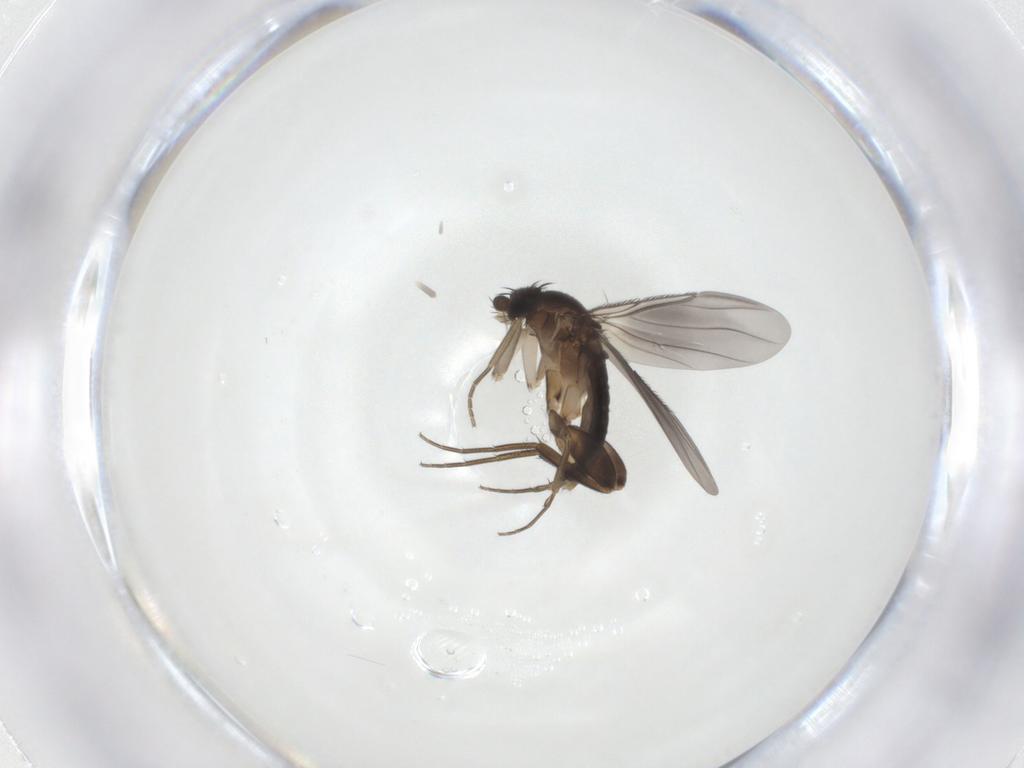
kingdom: Animalia
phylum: Arthropoda
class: Insecta
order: Diptera
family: Phoridae
